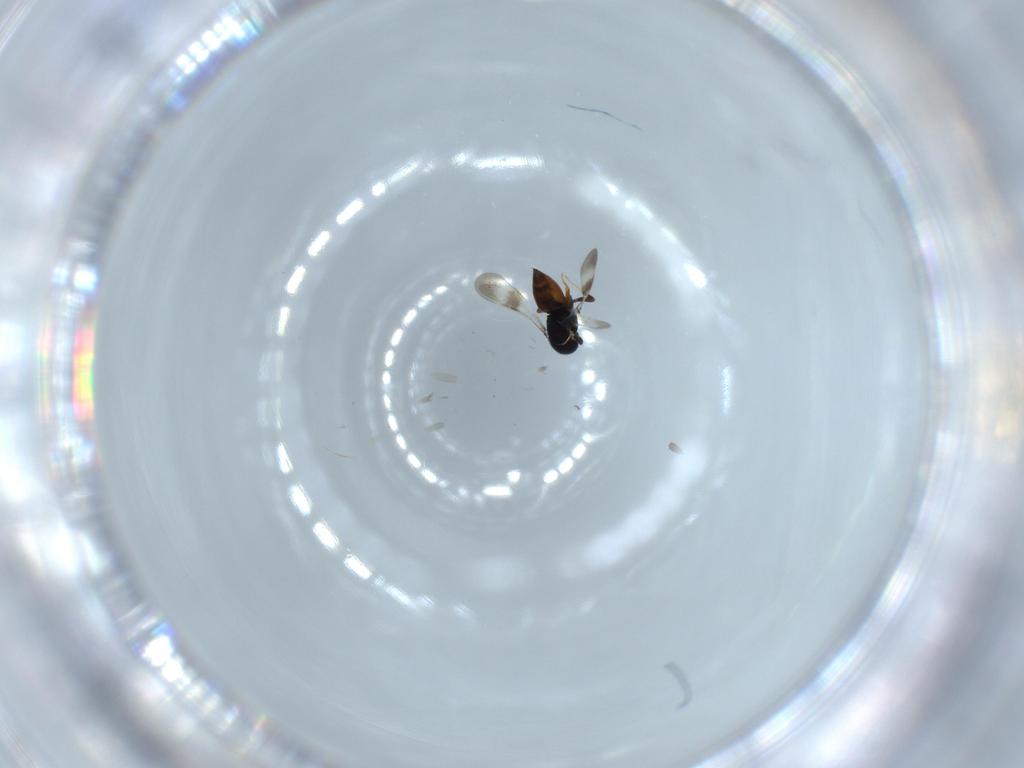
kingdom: Animalia
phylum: Arthropoda
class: Insecta
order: Hymenoptera
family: Ceraphronidae
